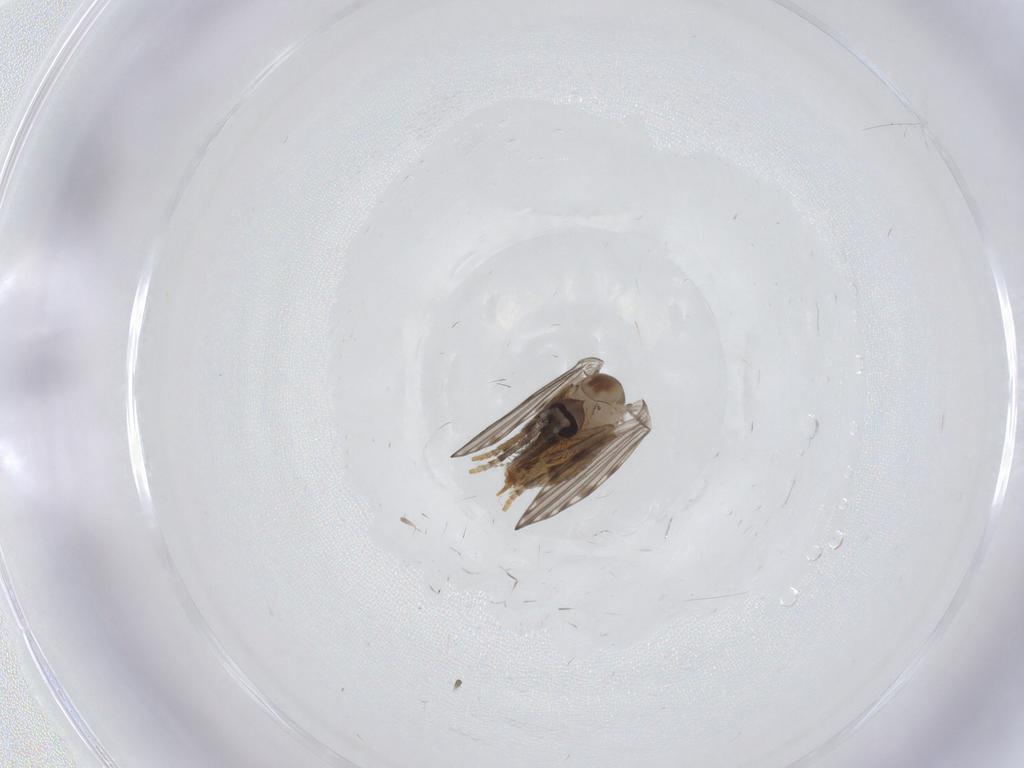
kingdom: Animalia
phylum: Arthropoda
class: Insecta
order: Diptera
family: Psychodidae
